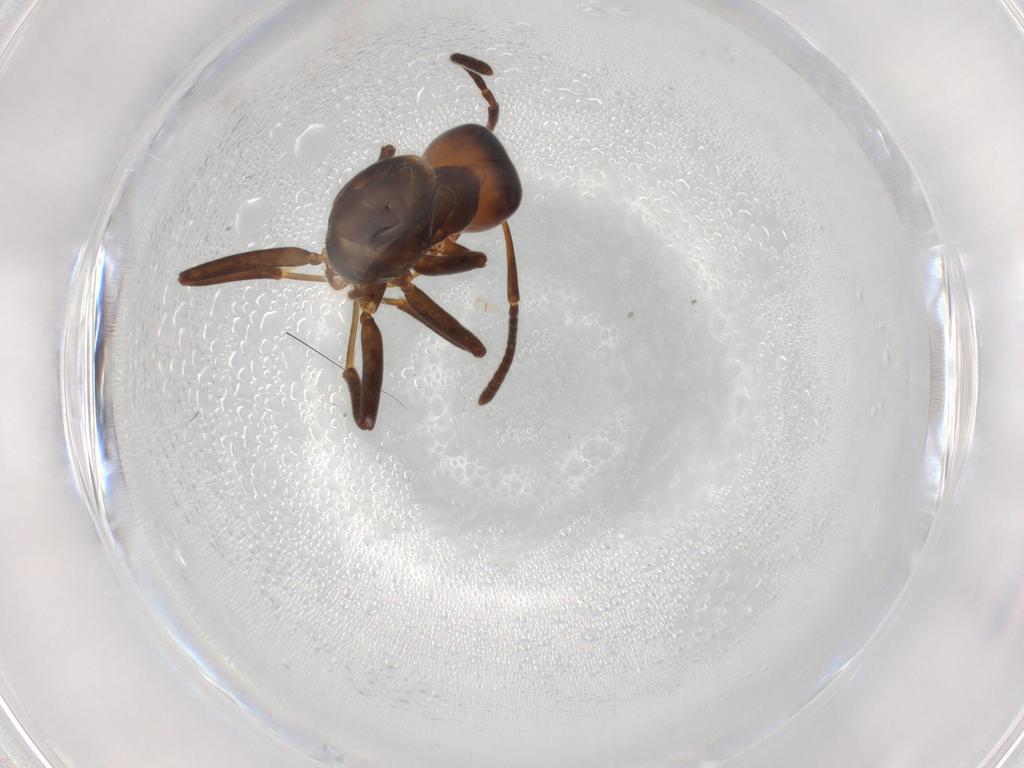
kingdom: Animalia
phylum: Arthropoda
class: Insecta
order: Hymenoptera
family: Formicidae
